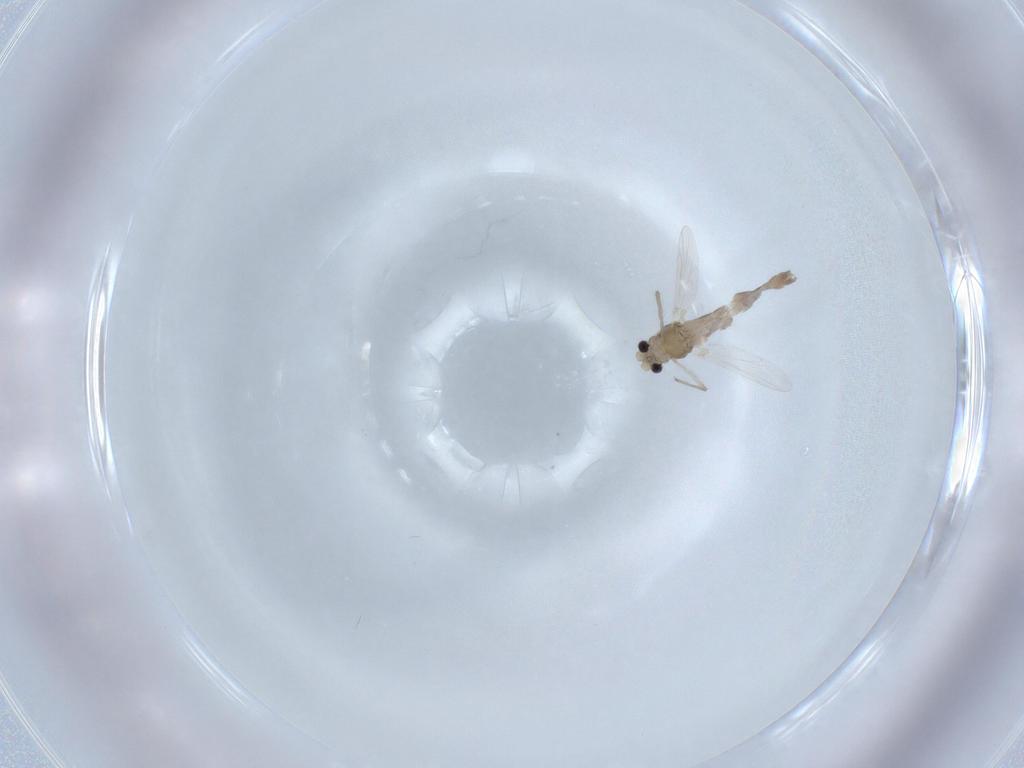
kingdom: Animalia
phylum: Arthropoda
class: Insecta
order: Diptera
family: Chironomidae
